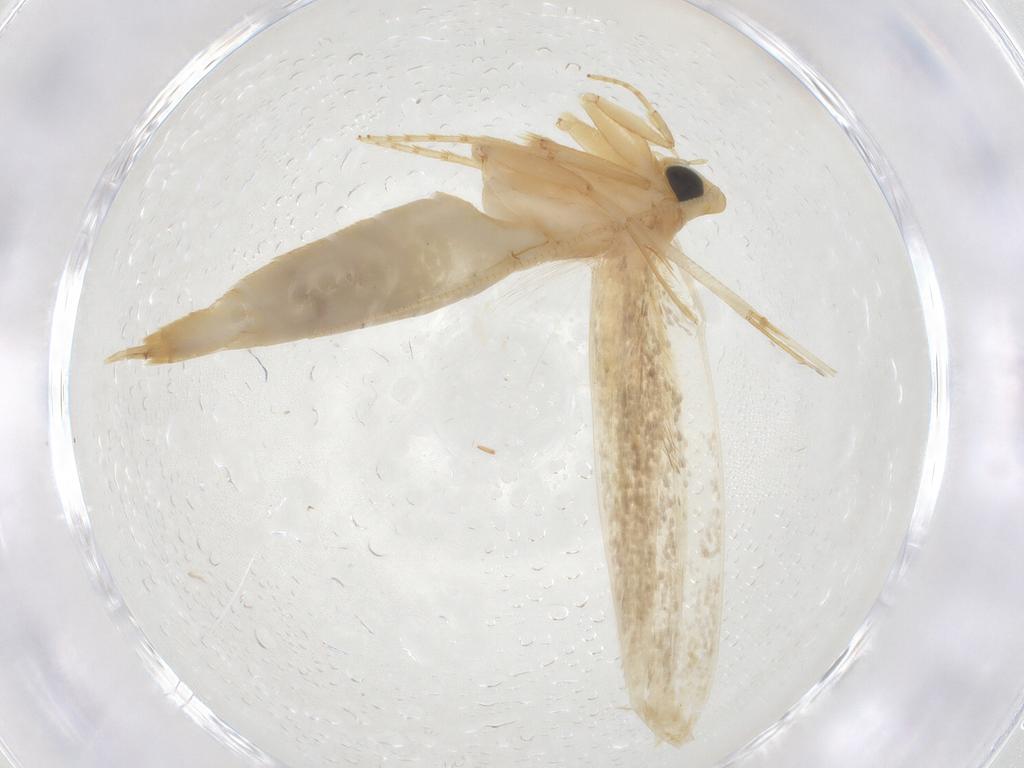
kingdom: Animalia
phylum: Arthropoda
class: Insecta
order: Lepidoptera
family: Tineidae
